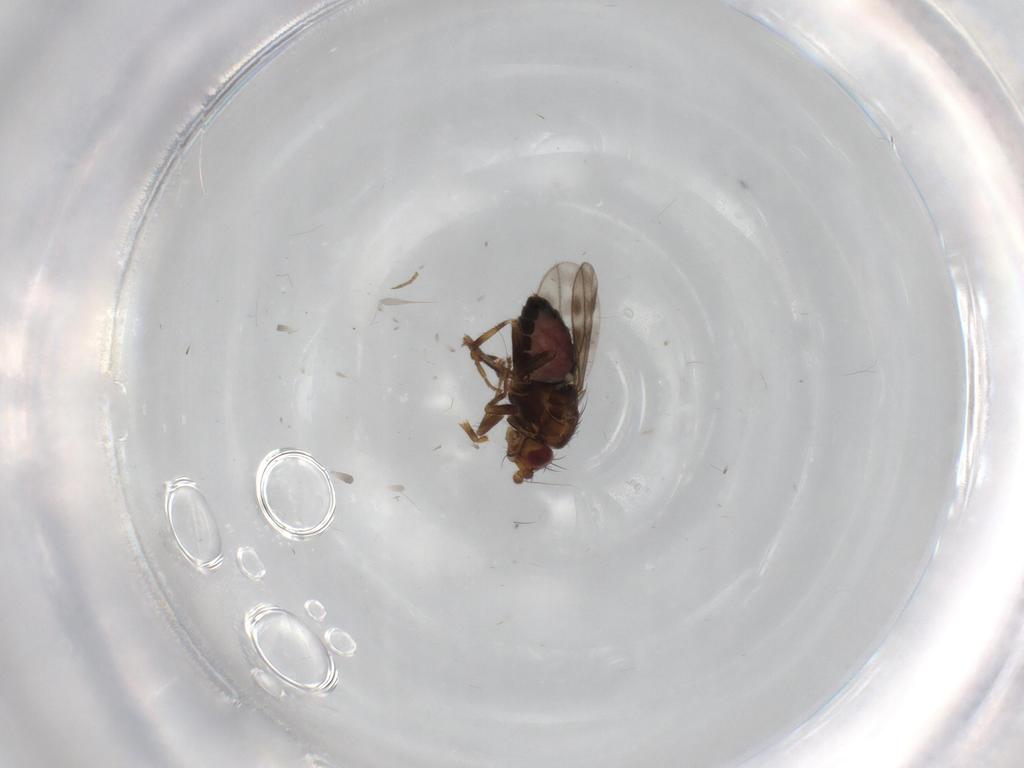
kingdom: Animalia
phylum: Arthropoda
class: Insecta
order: Diptera
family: Sphaeroceridae
